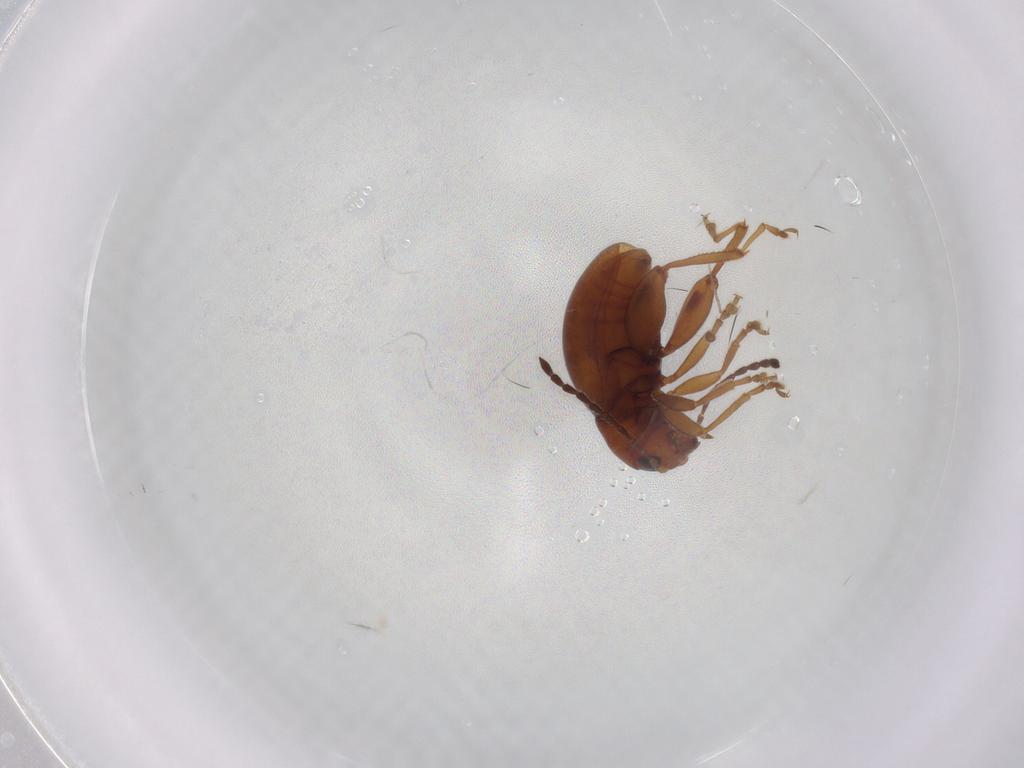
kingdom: Animalia
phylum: Arthropoda
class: Insecta
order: Coleoptera
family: Chrysomelidae
